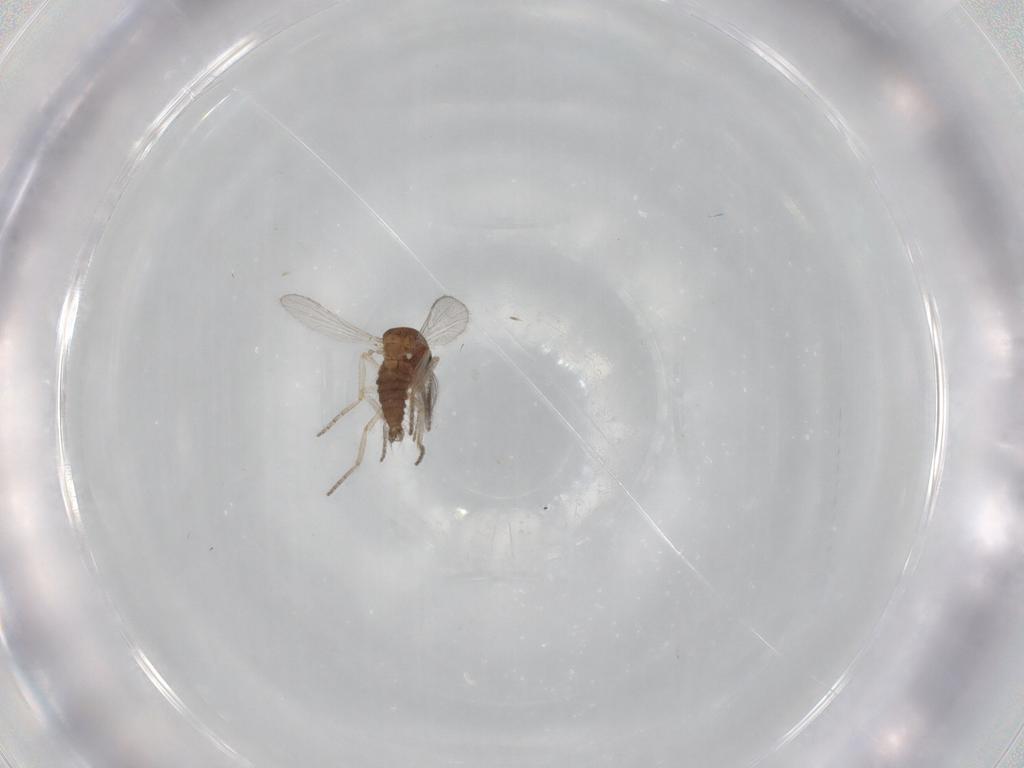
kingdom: Animalia
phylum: Arthropoda
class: Insecta
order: Diptera
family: Ceratopogonidae
